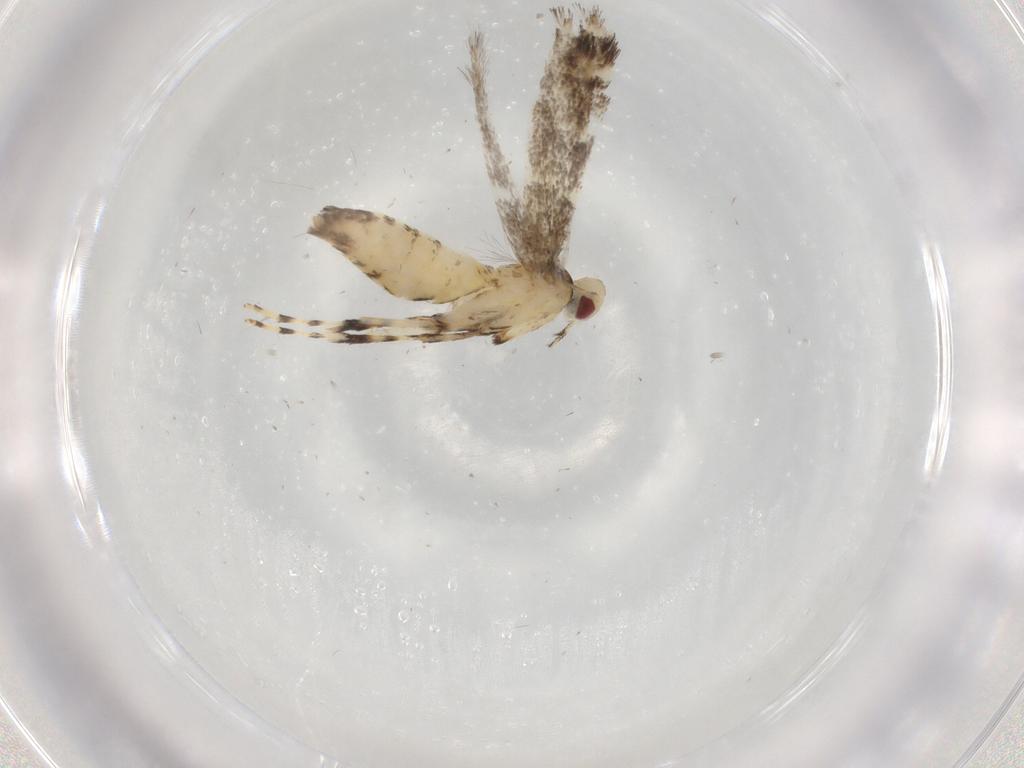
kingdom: Animalia
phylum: Arthropoda
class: Insecta
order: Lepidoptera
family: Gracillariidae
